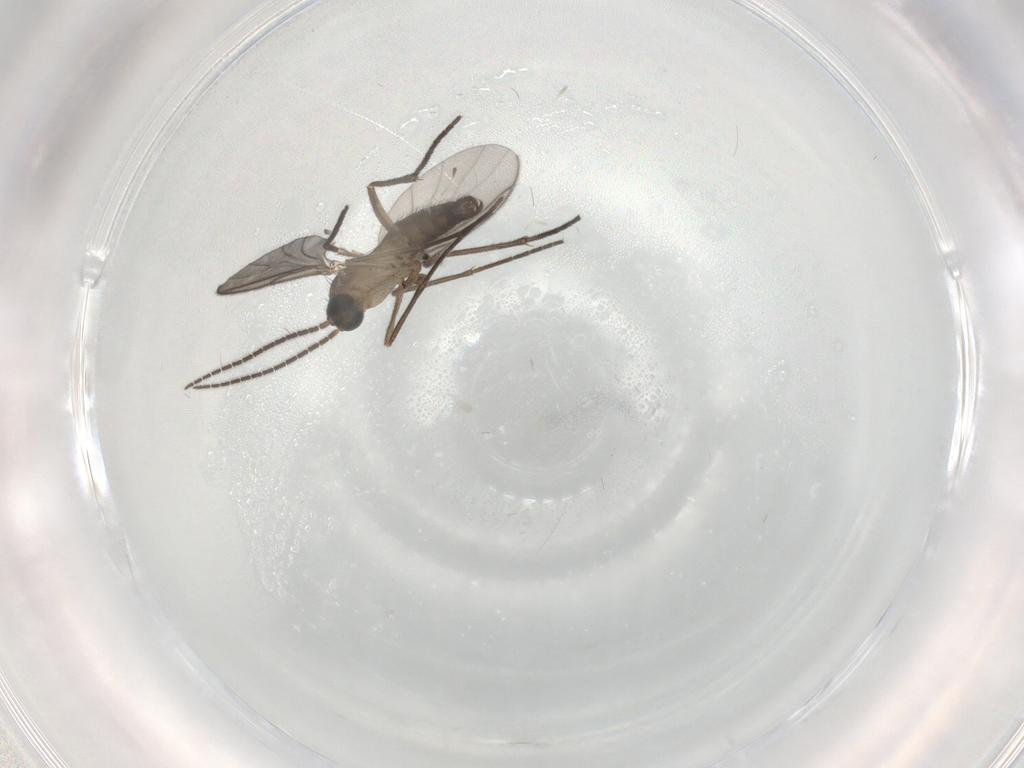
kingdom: Animalia
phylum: Arthropoda
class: Insecta
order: Diptera
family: Sciaridae
